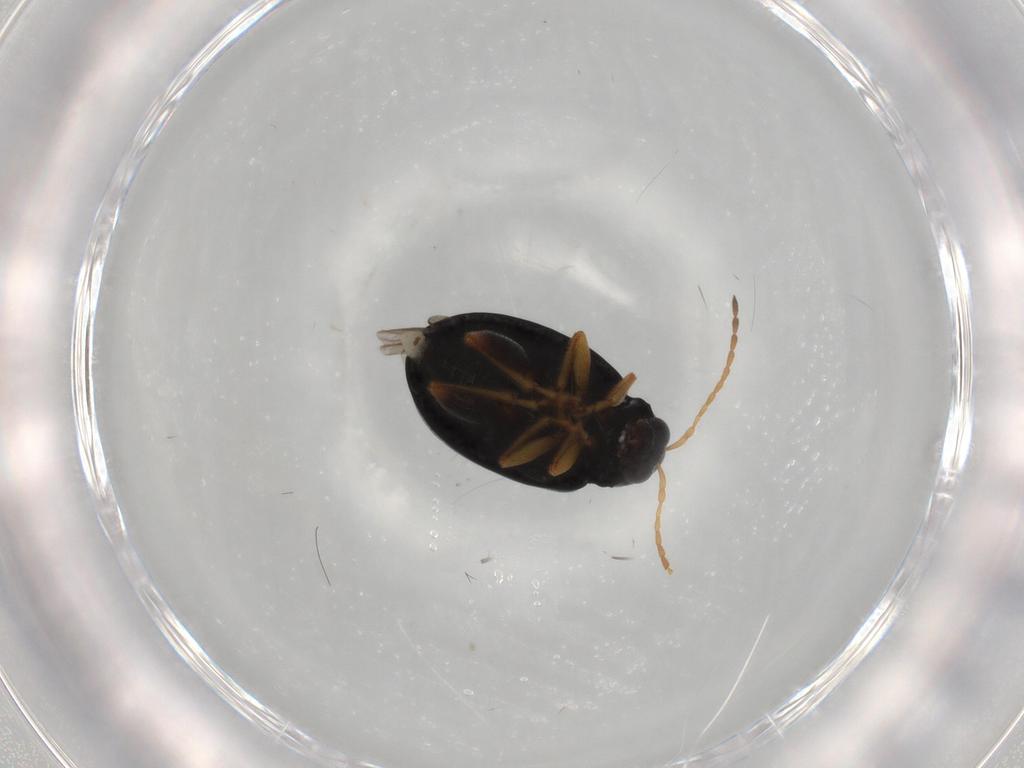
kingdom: Animalia
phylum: Arthropoda
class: Insecta
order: Coleoptera
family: Chrysomelidae
